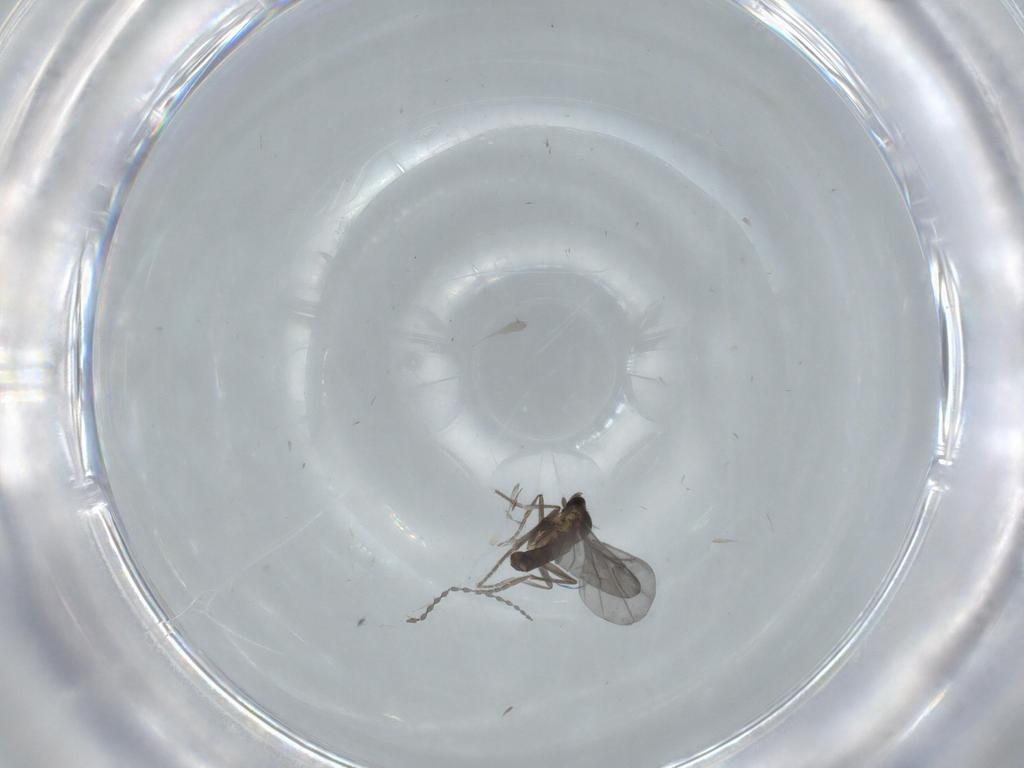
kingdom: Animalia
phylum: Arthropoda
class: Insecta
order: Diptera
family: Phoridae
